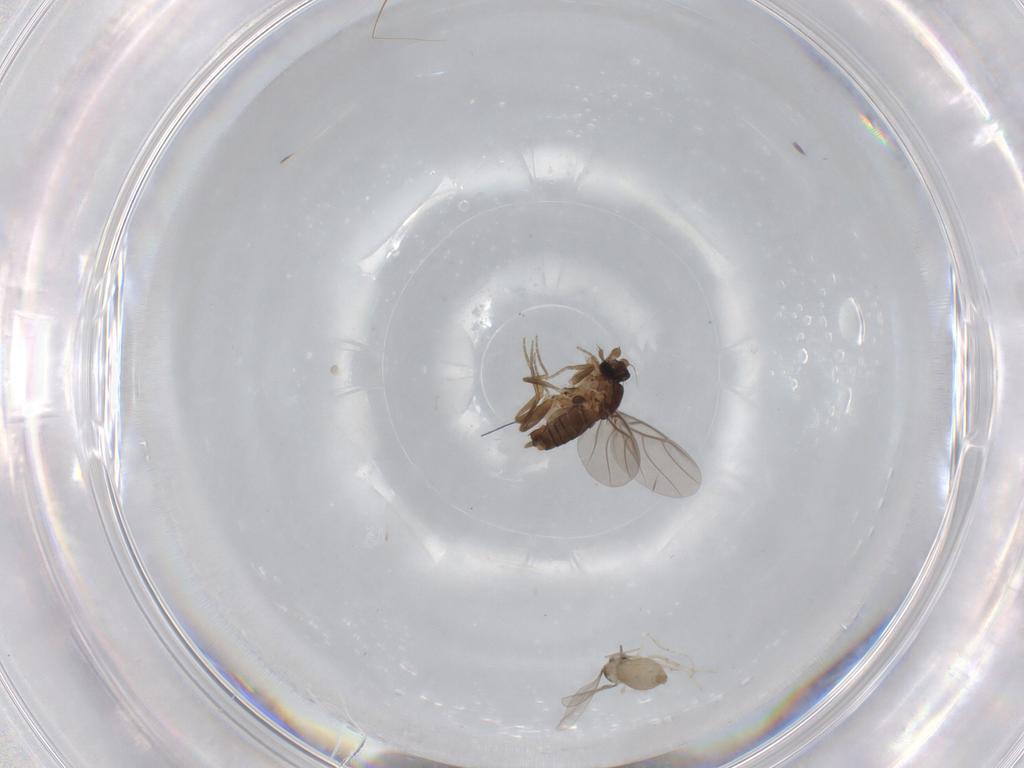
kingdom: Animalia
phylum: Arthropoda
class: Insecta
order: Diptera
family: Phoridae
